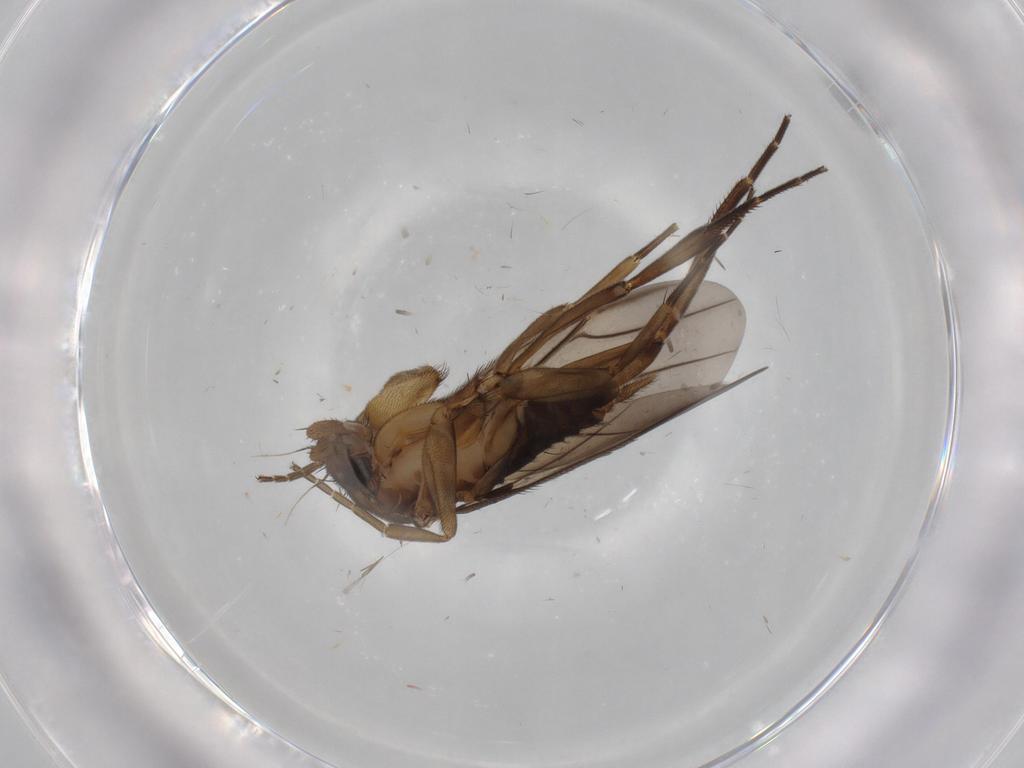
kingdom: Animalia
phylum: Arthropoda
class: Insecta
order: Diptera
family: Phoridae
